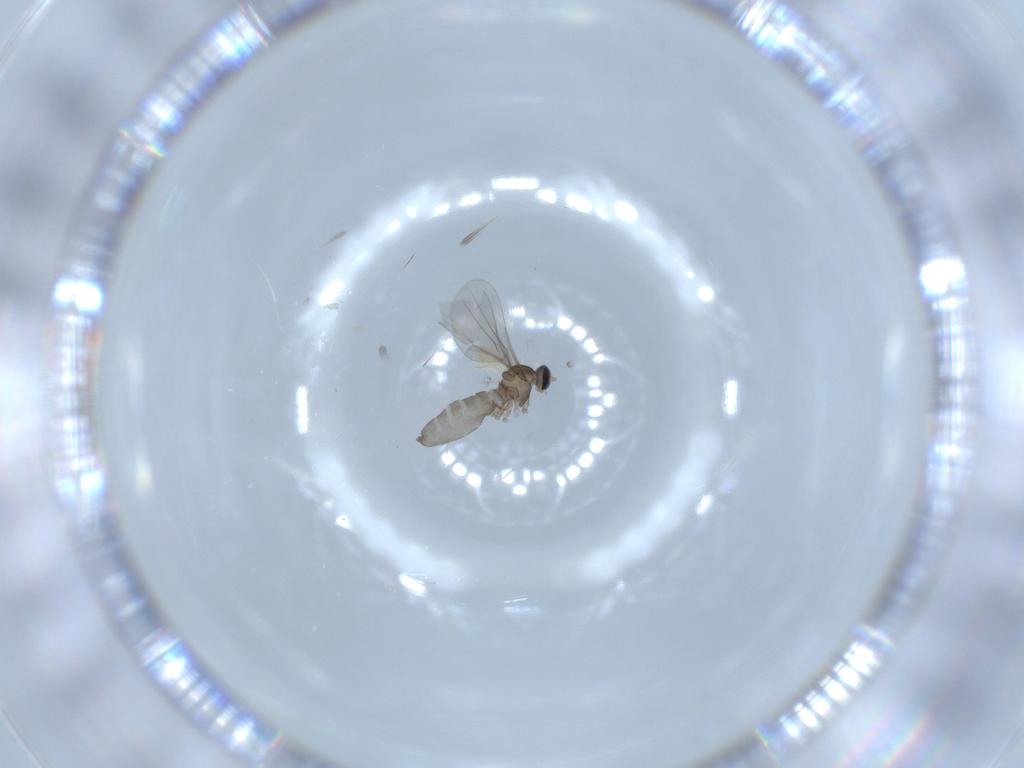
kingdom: Animalia
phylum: Arthropoda
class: Insecta
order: Diptera
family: Cecidomyiidae
